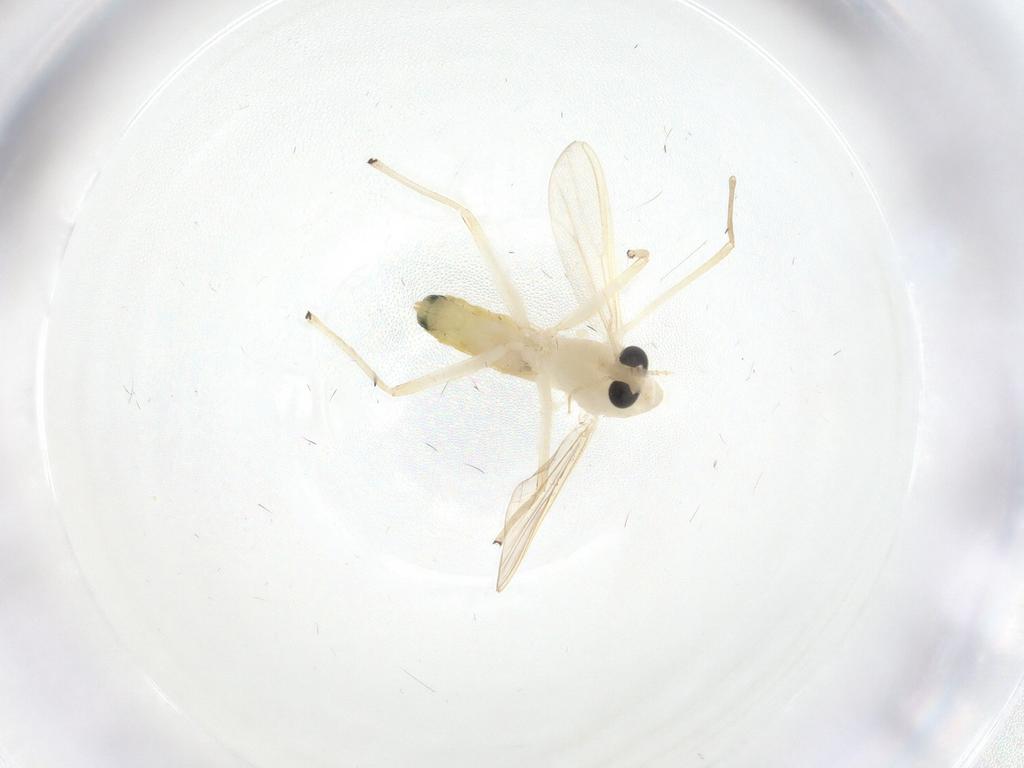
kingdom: Animalia
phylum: Arthropoda
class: Insecta
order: Diptera
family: Chironomidae
